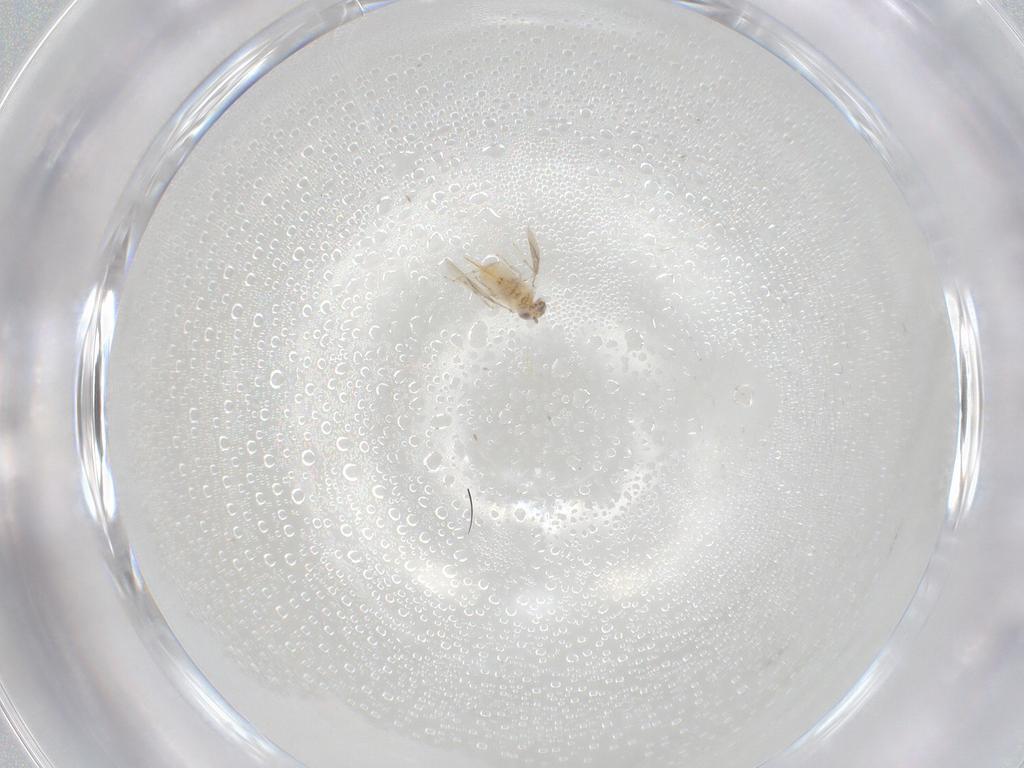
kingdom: Animalia
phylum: Arthropoda
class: Insecta
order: Hymenoptera
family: Aphelinidae
